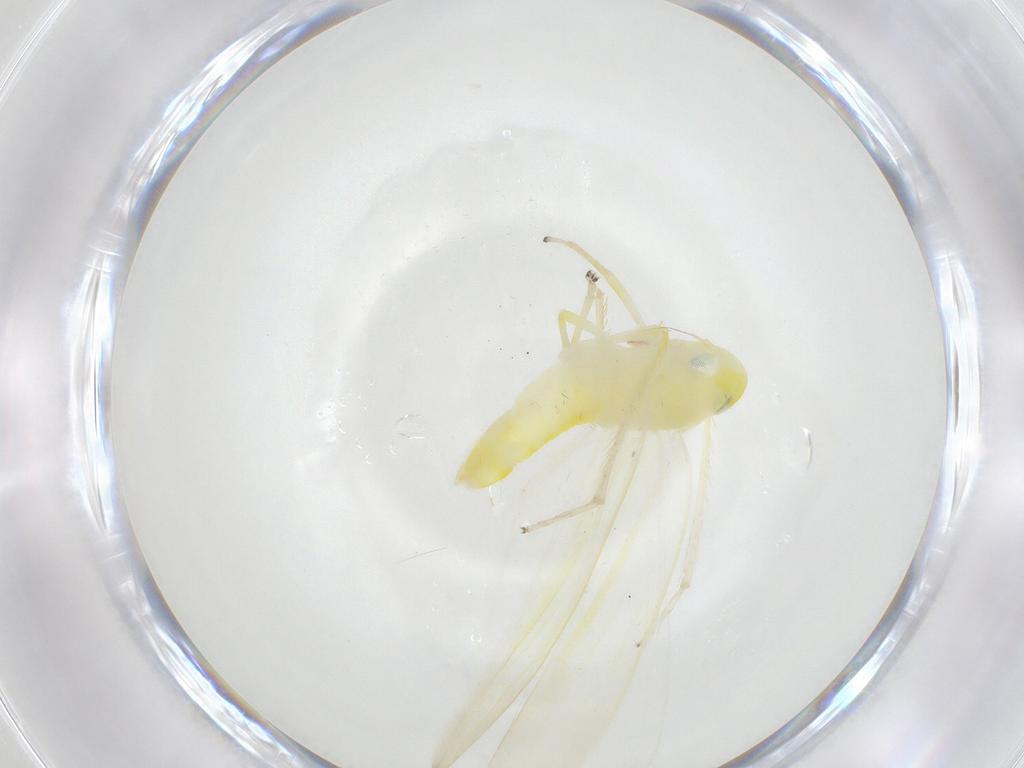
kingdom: Animalia
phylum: Arthropoda
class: Insecta
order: Hemiptera
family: Cicadellidae
